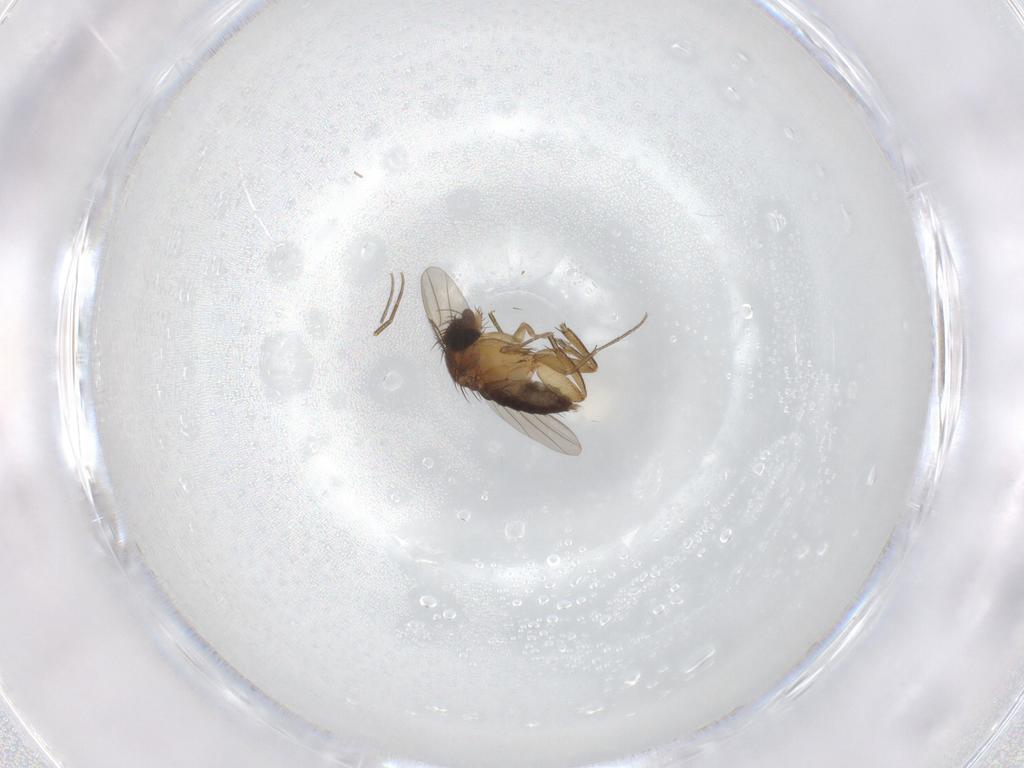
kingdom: Animalia
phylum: Arthropoda
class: Insecta
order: Diptera
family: Phoridae
